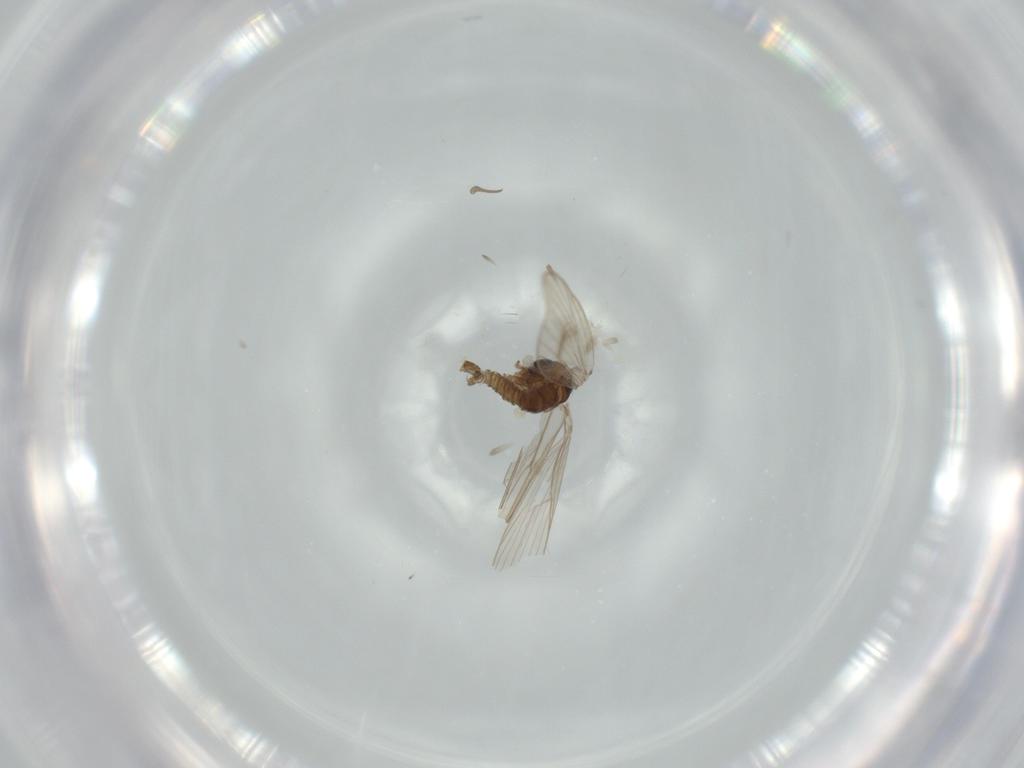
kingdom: Animalia
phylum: Arthropoda
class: Insecta
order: Diptera
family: Psychodidae
